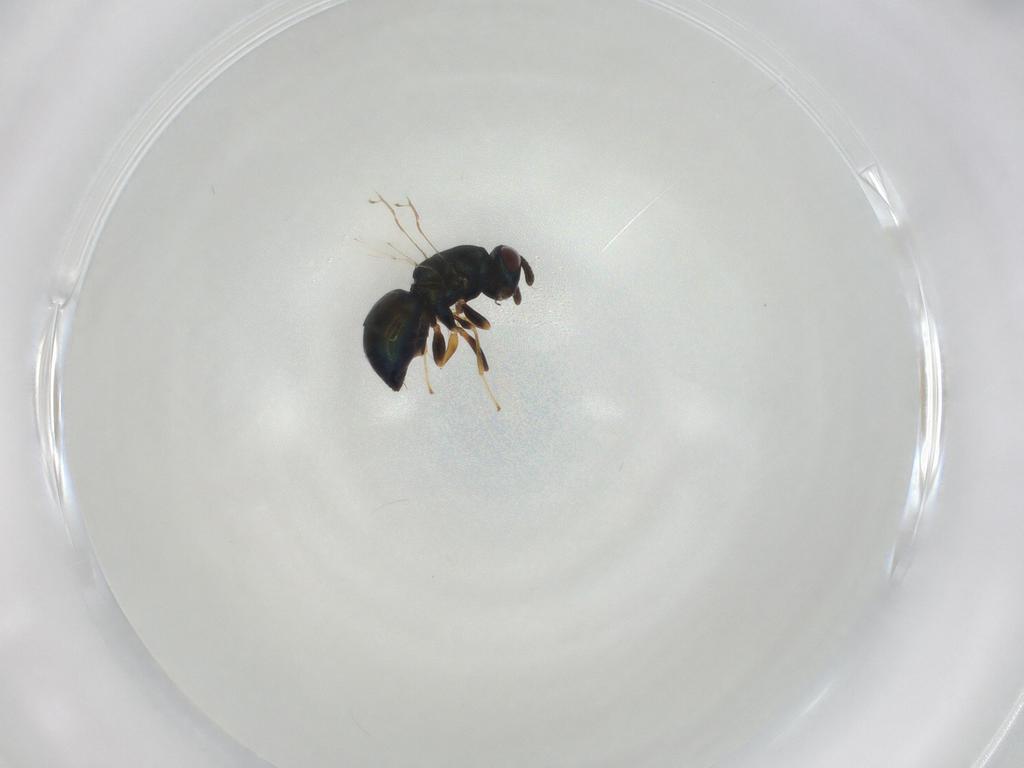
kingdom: Animalia
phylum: Arthropoda
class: Insecta
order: Hymenoptera
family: Pteromalidae
